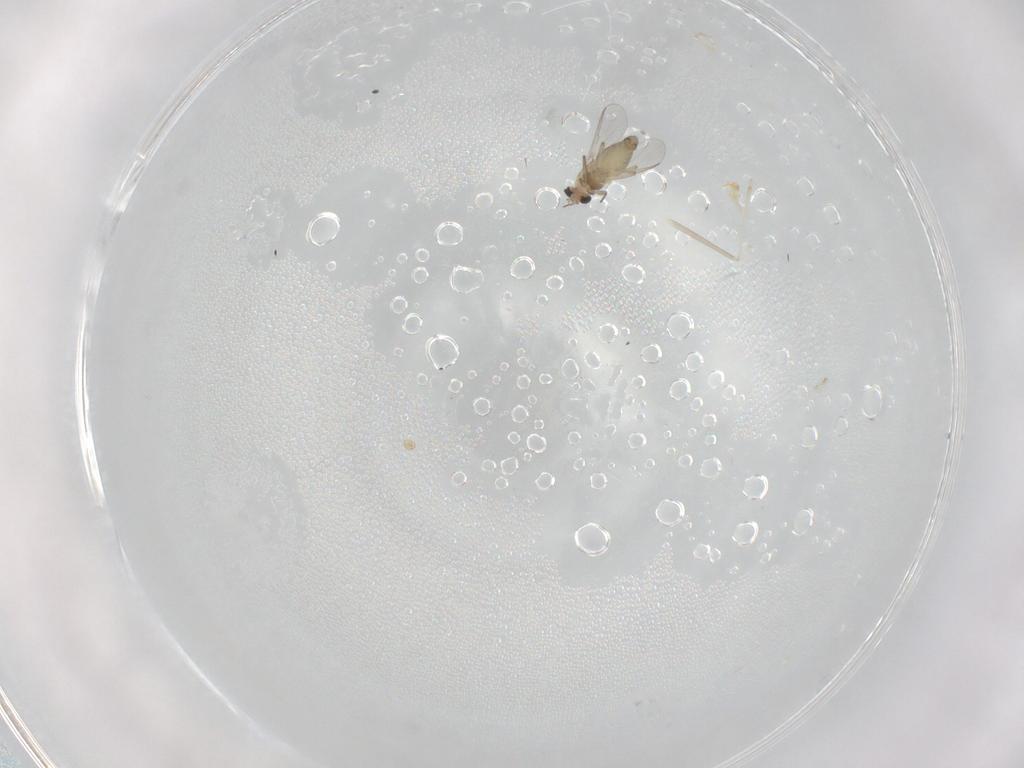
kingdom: Animalia
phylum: Arthropoda
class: Insecta
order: Diptera
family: Chironomidae
